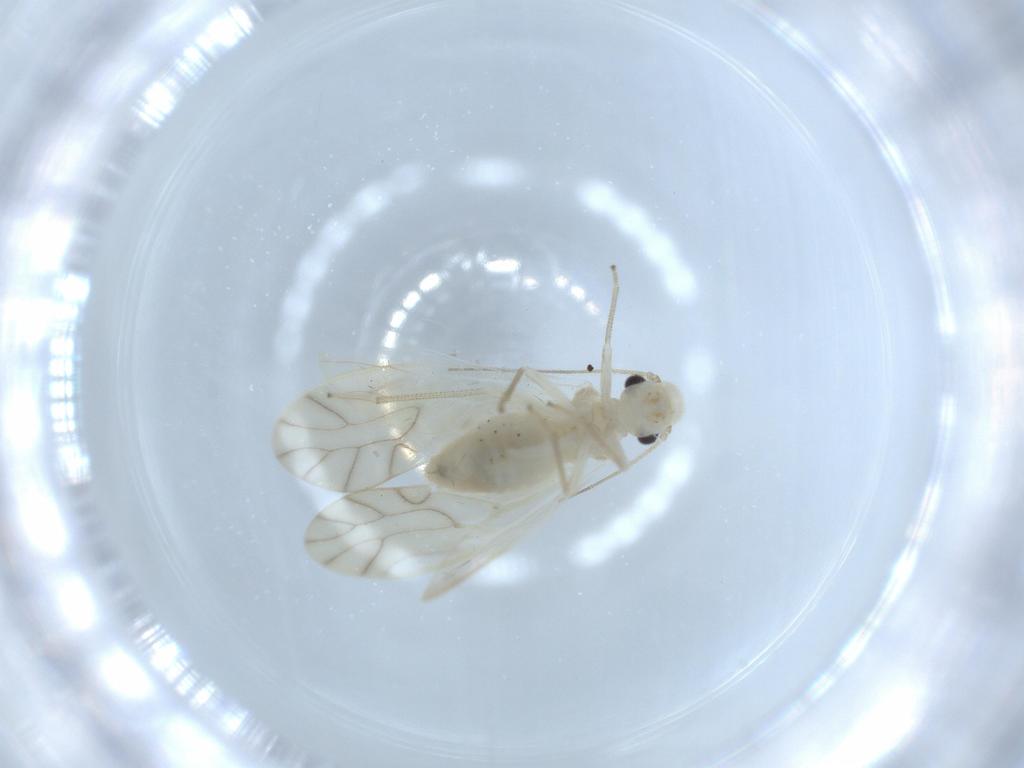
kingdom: Animalia
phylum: Arthropoda
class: Insecta
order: Psocodea
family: Caeciliusidae
